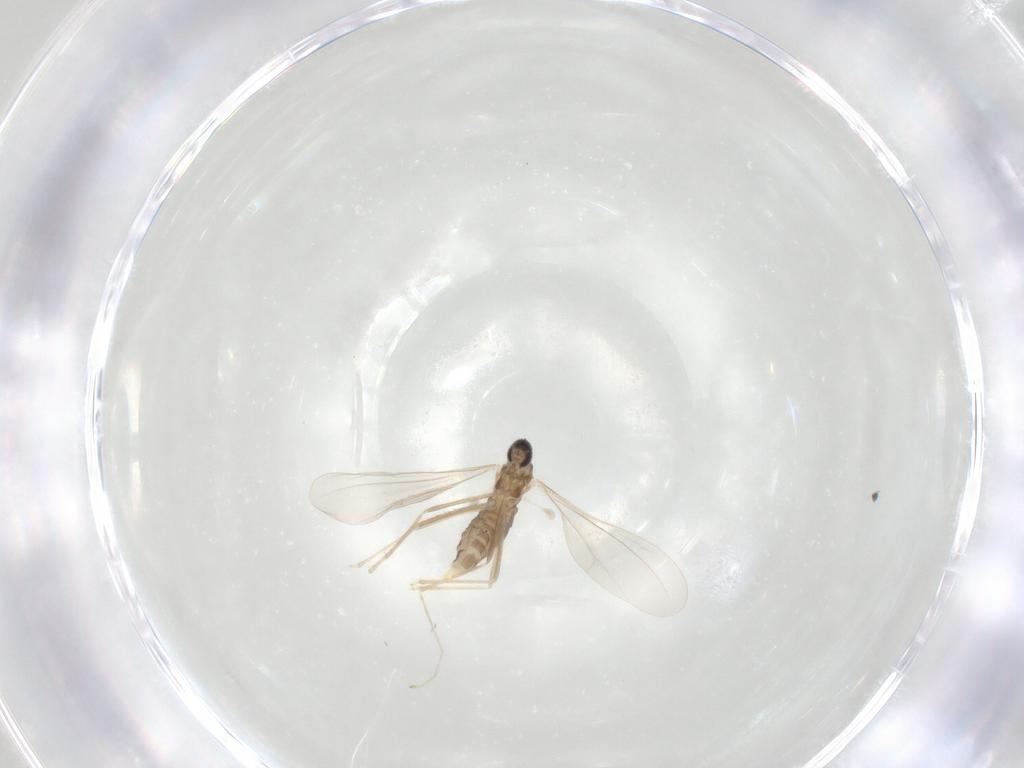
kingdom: Animalia
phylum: Arthropoda
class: Insecta
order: Diptera
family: Cecidomyiidae
